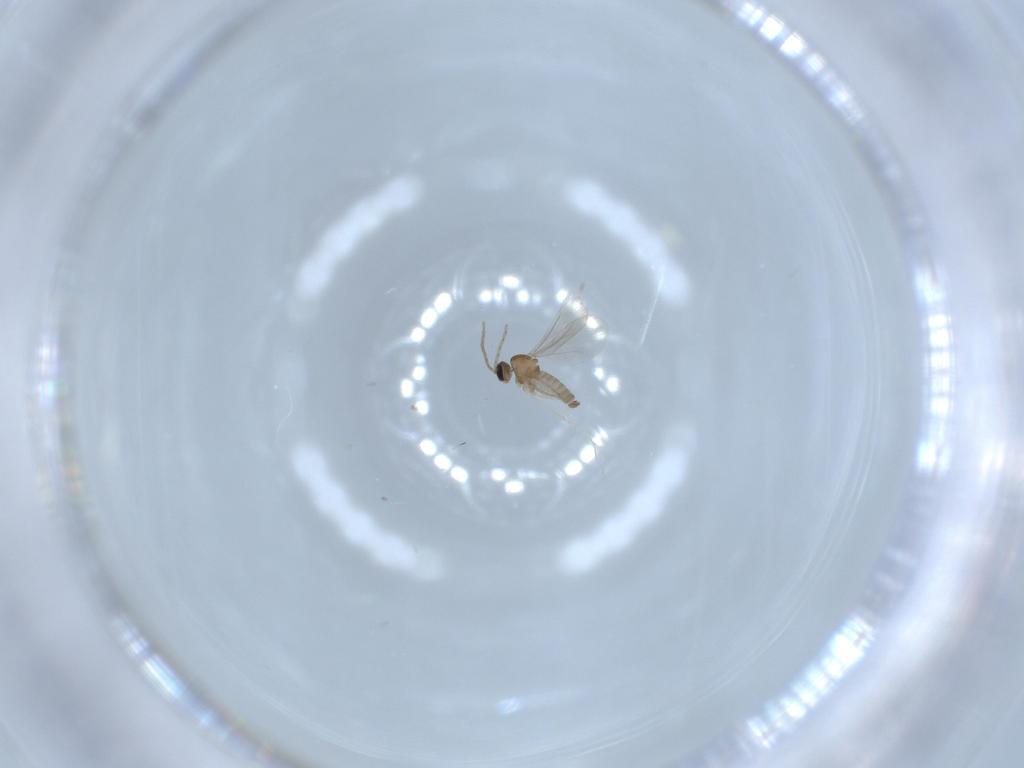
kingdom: Animalia
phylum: Arthropoda
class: Insecta
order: Diptera
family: Cecidomyiidae
